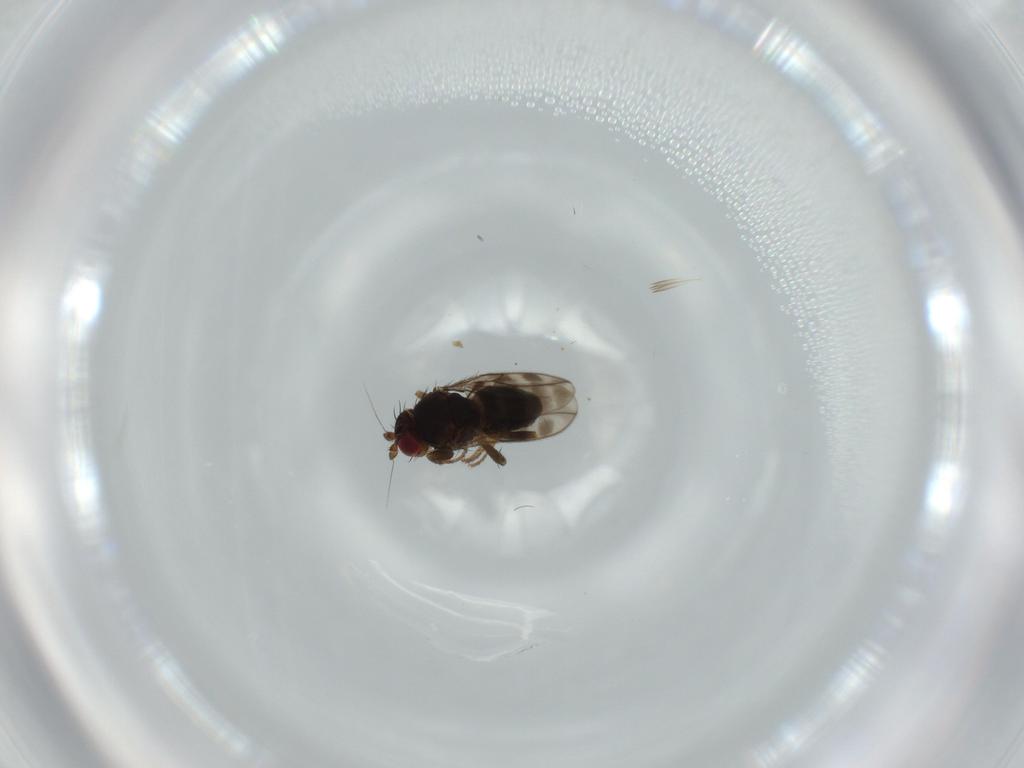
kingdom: Animalia
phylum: Arthropoda
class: Insecta
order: Diptera
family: Sphaeroceridae
